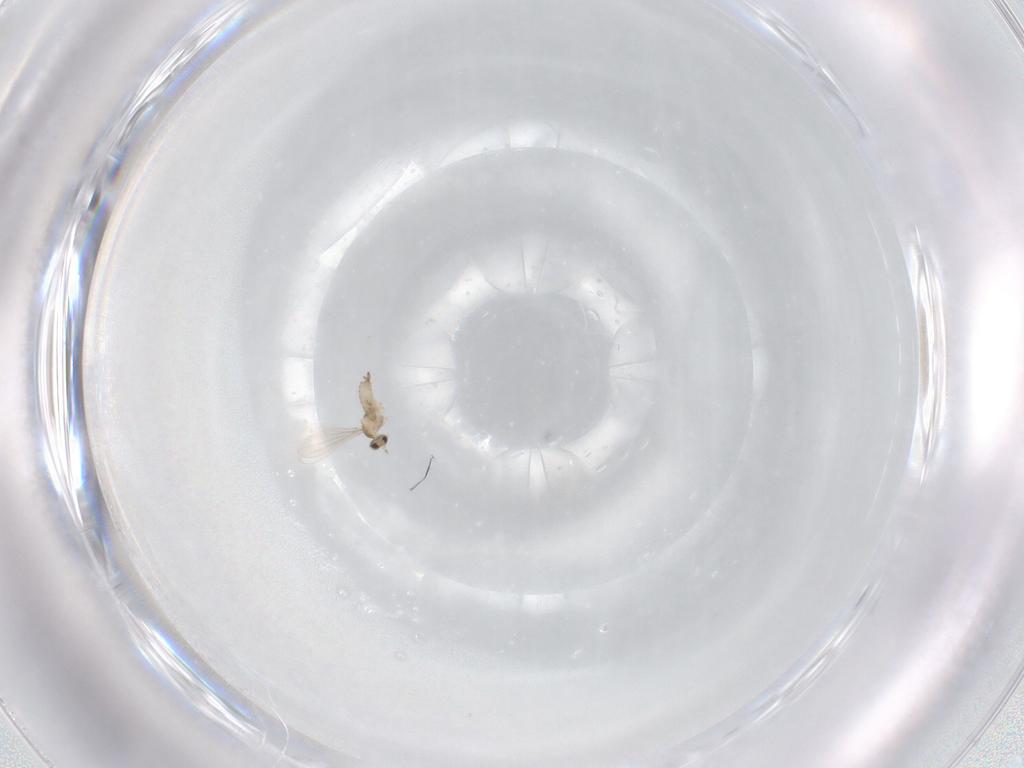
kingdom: Animalia
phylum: Arthropoda
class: Insecta
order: Diptera
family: Cecidomyiidae
